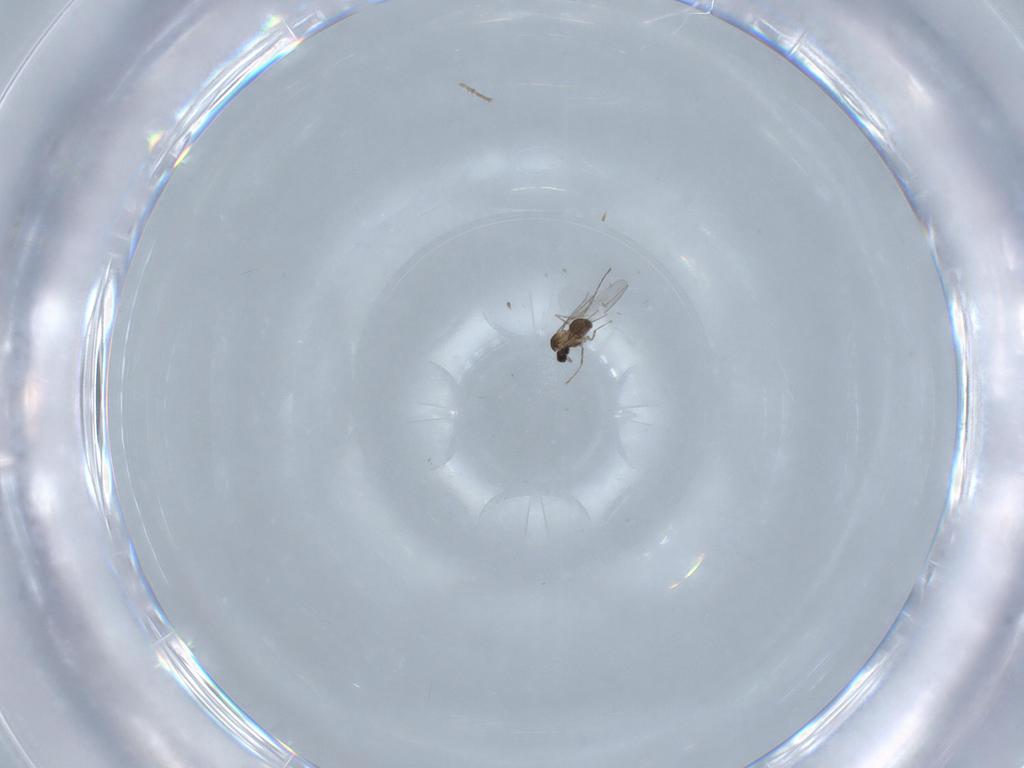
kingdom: Animalia
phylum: Arthropoda
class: Insecta
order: Diptera
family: Cecidomyiidae
